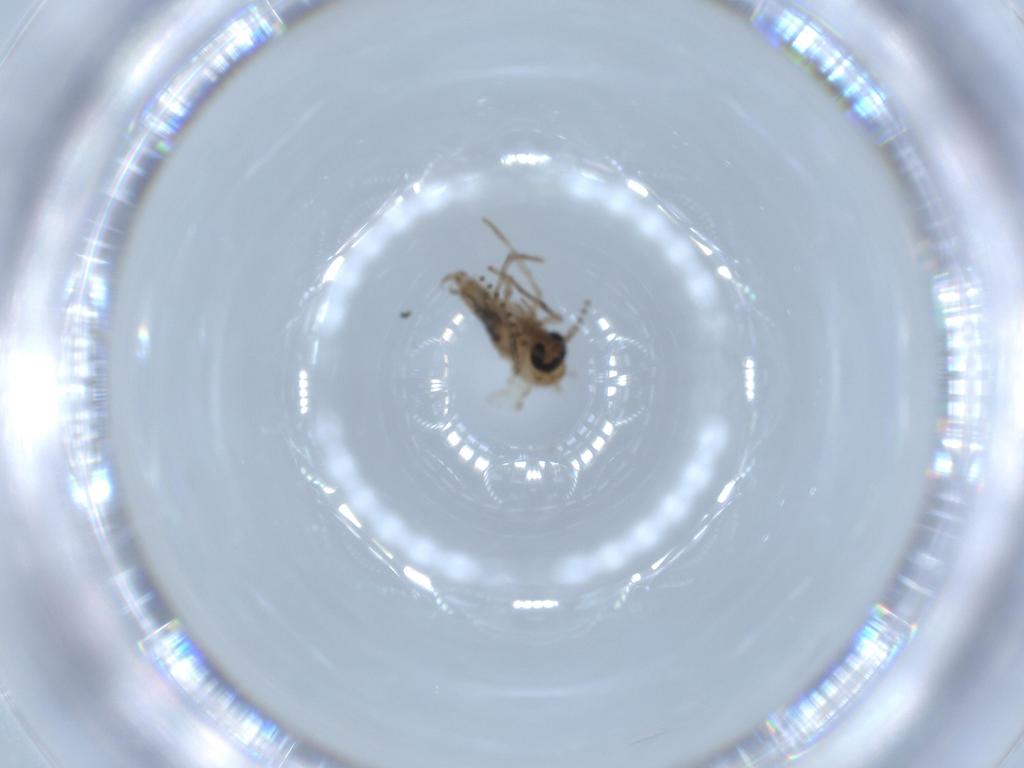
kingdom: Animalia
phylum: Arthropoda
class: Insecta
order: Diptera
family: Cecidomyiidae
